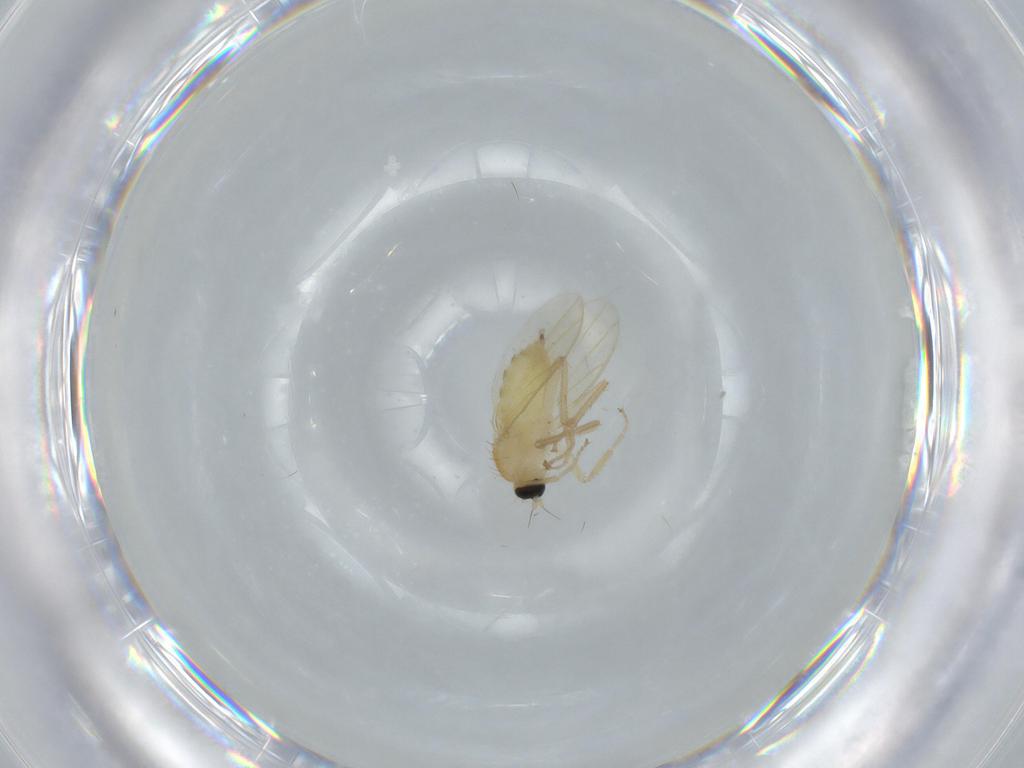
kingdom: Animalia
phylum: Arthropoda
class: Insecta
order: Diptera
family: Hybotidae
